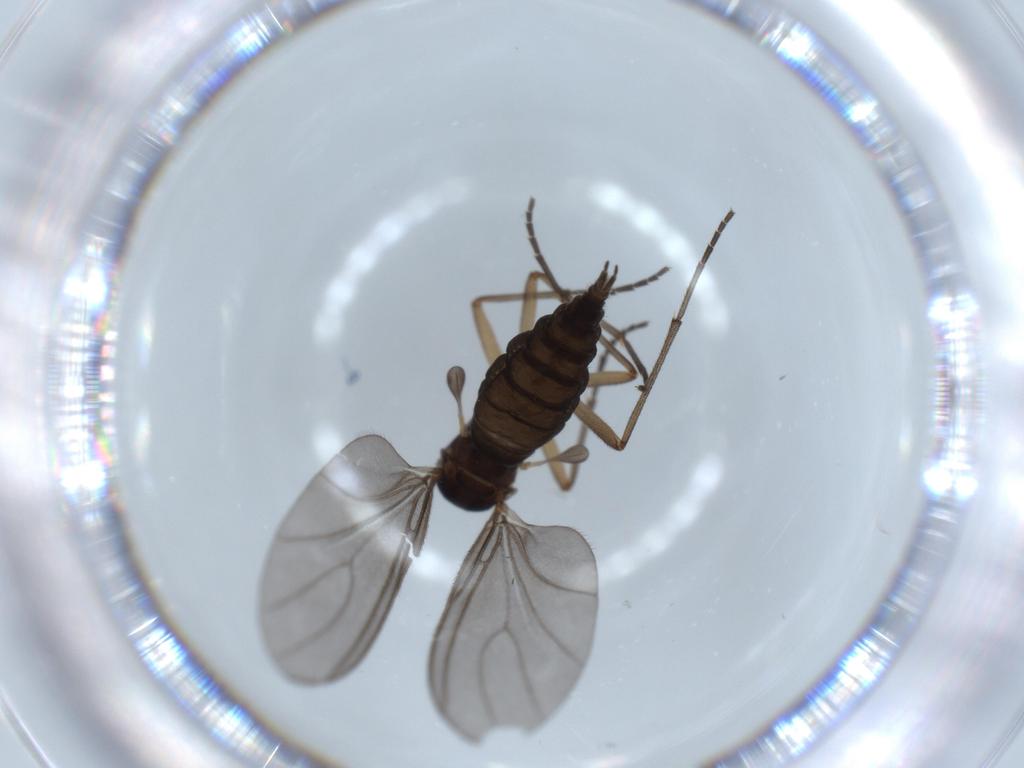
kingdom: Animalia
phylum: Arthropoda
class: Insecta
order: Diptera
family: Sciaridae
